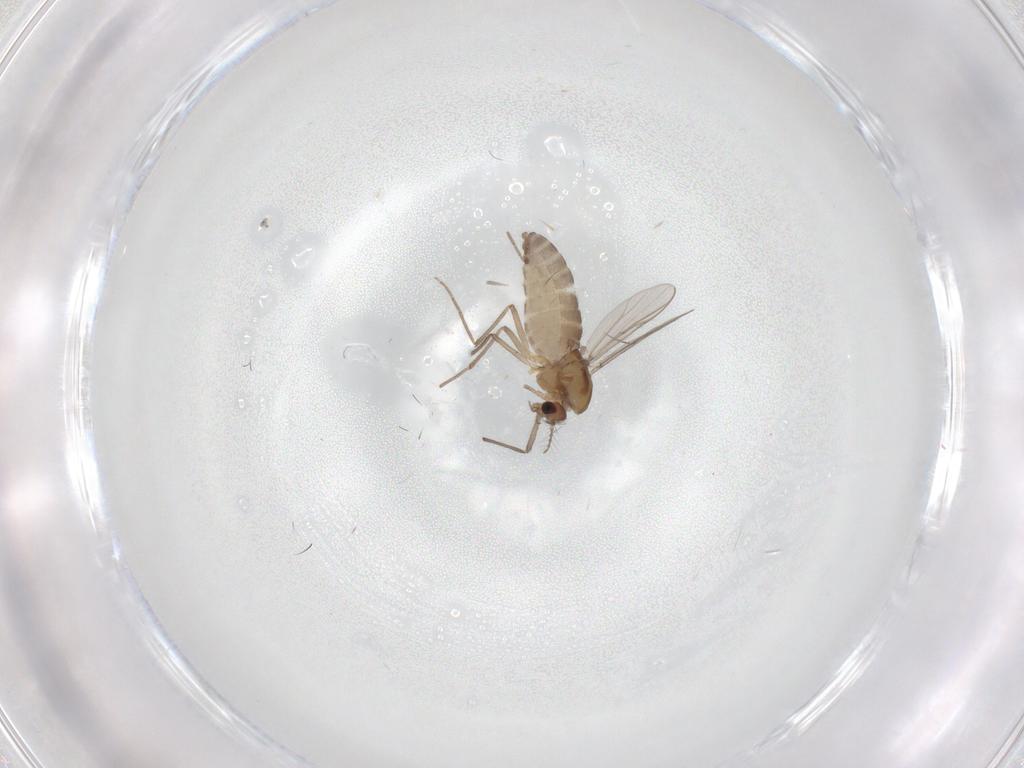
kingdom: Animalia
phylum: Arthropoda
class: Insecta
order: Diptera
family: Chironomidae
